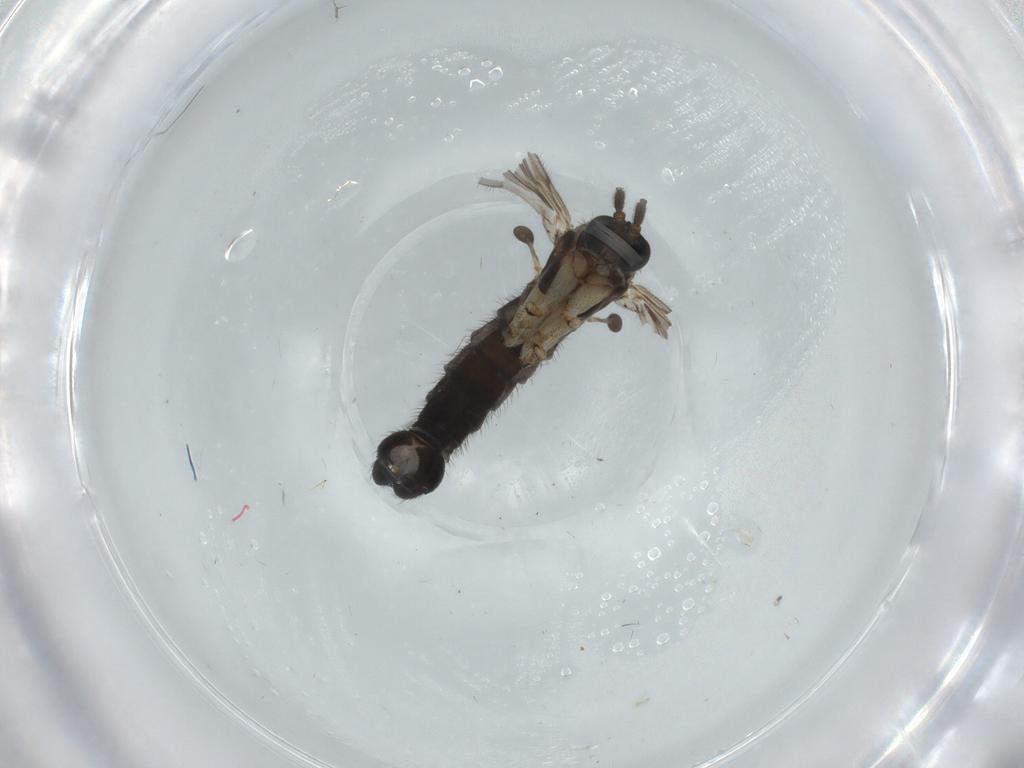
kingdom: Animalia
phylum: Arthropoda
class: Insecta
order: Diptera
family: Sciaridae
